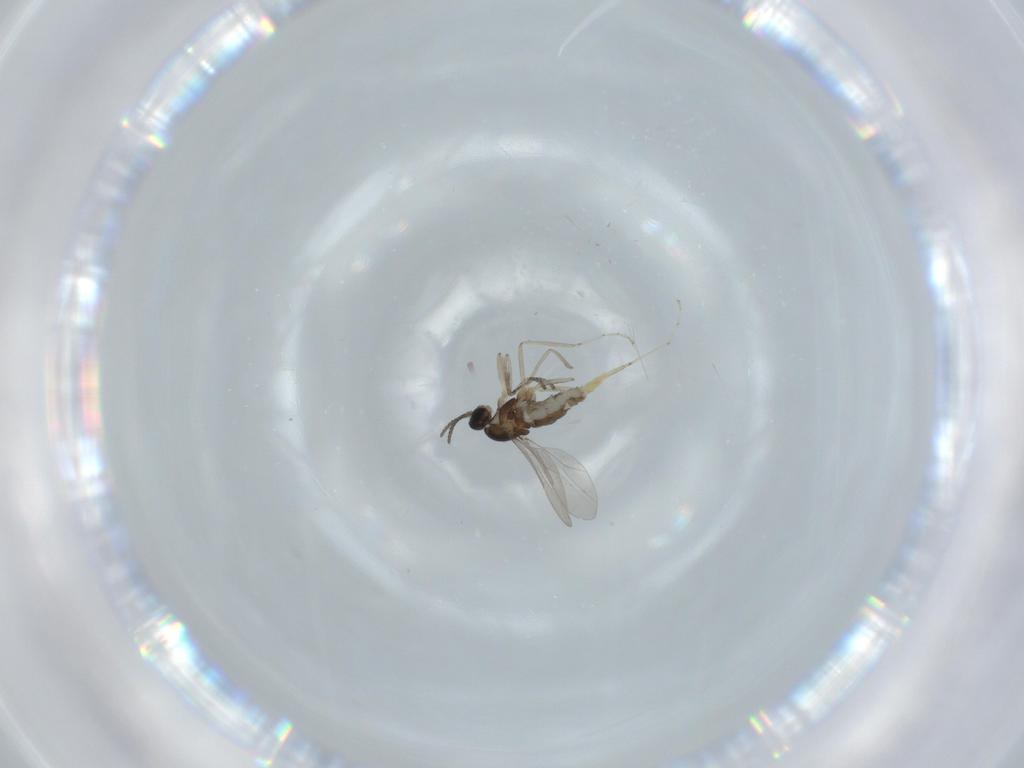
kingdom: Animalia
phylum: Arthropoda
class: Insecta
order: Diptera
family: Cecidomyiidae
